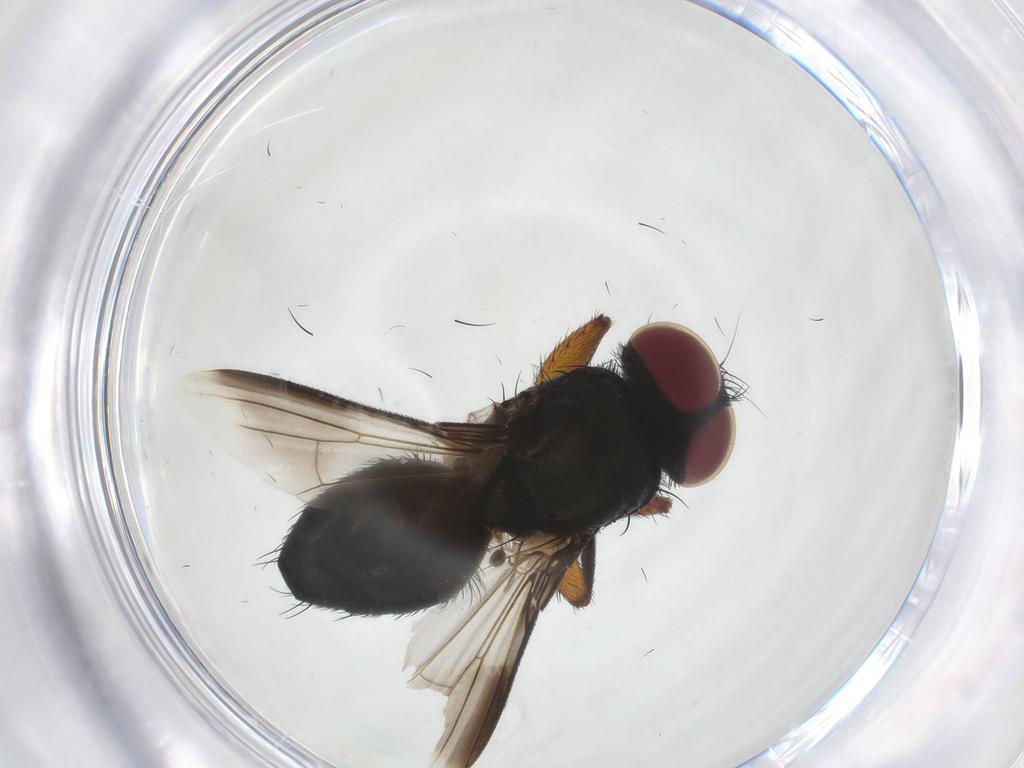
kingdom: Animalia
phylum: Arthropoda
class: Insecta
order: Diptera
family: Tachinidae
